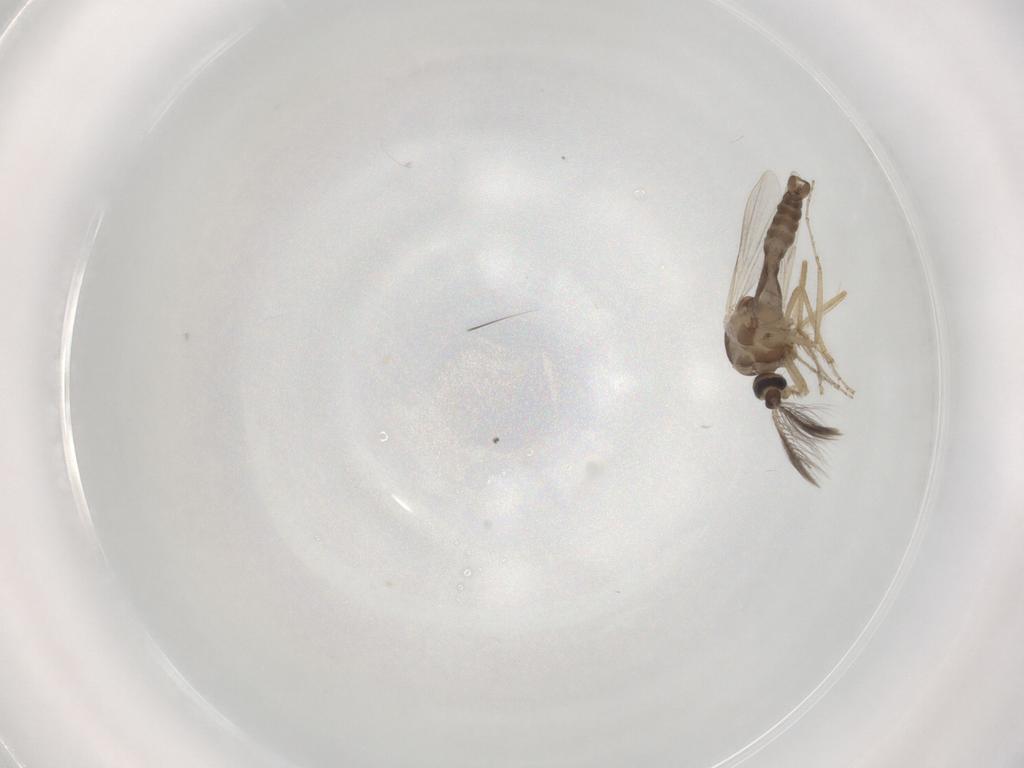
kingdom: Animalia
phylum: Arthropoda
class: Insecta
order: Diptera
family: Ceratopogonidae
